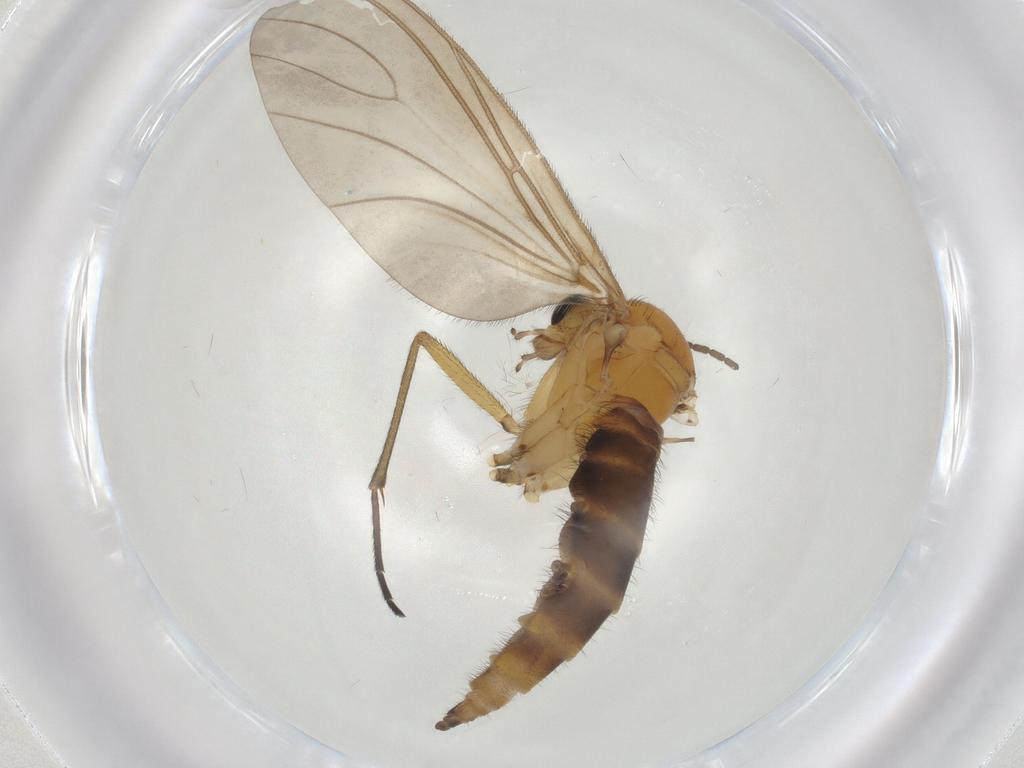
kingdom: Animalia
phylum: Arthropoda
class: Insecta
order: Diptera
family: Sciaridae
